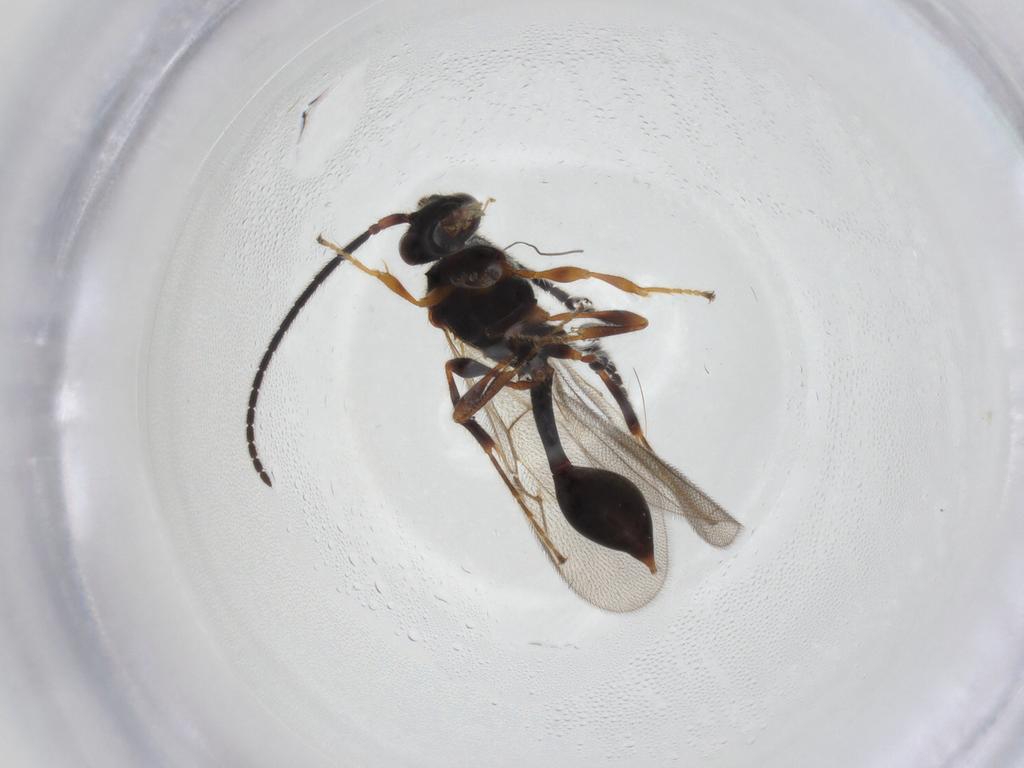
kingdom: Animalia
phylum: Arthropoda
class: Insecta
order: Hymenoptera
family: Diapriidae
